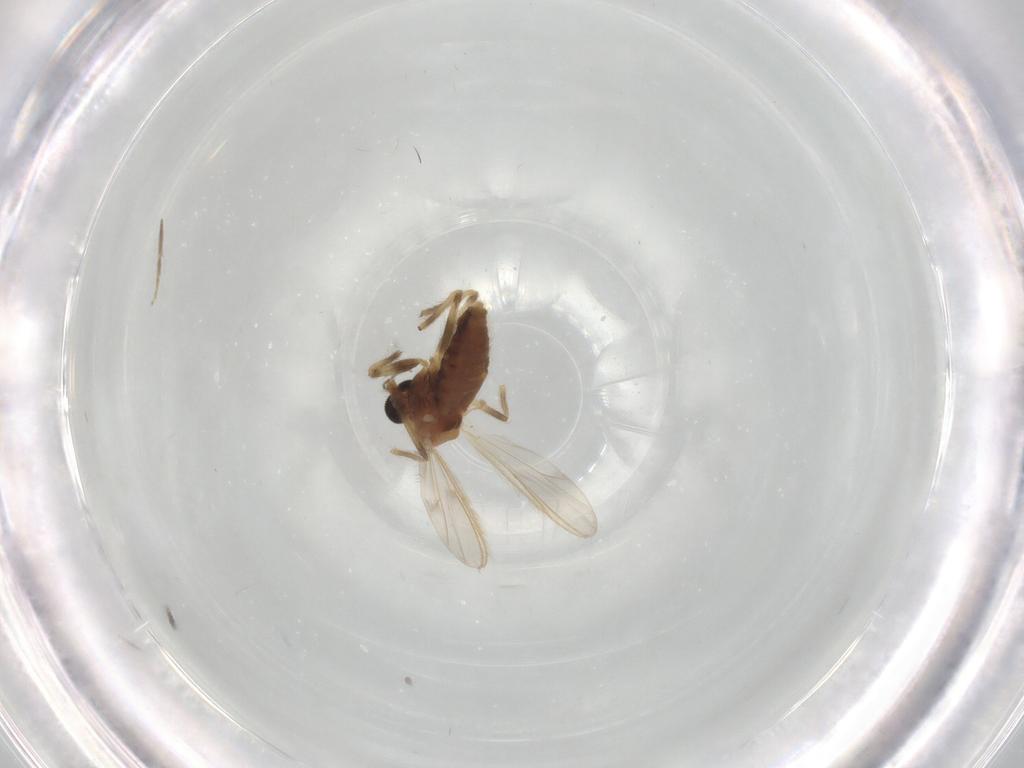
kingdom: Animalia
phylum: Arthropoda
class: Insecta
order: Diptera
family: Chironomidae
